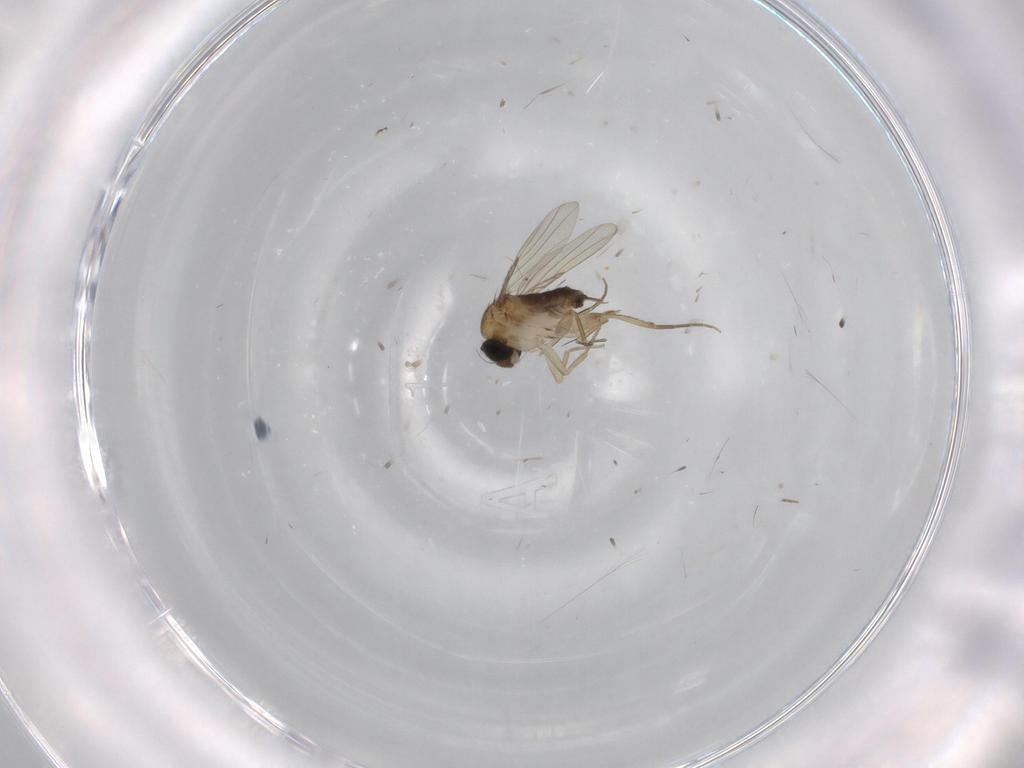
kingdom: Animalia
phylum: Arthropoda
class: Insecta
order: Diptera
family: Phoridae
